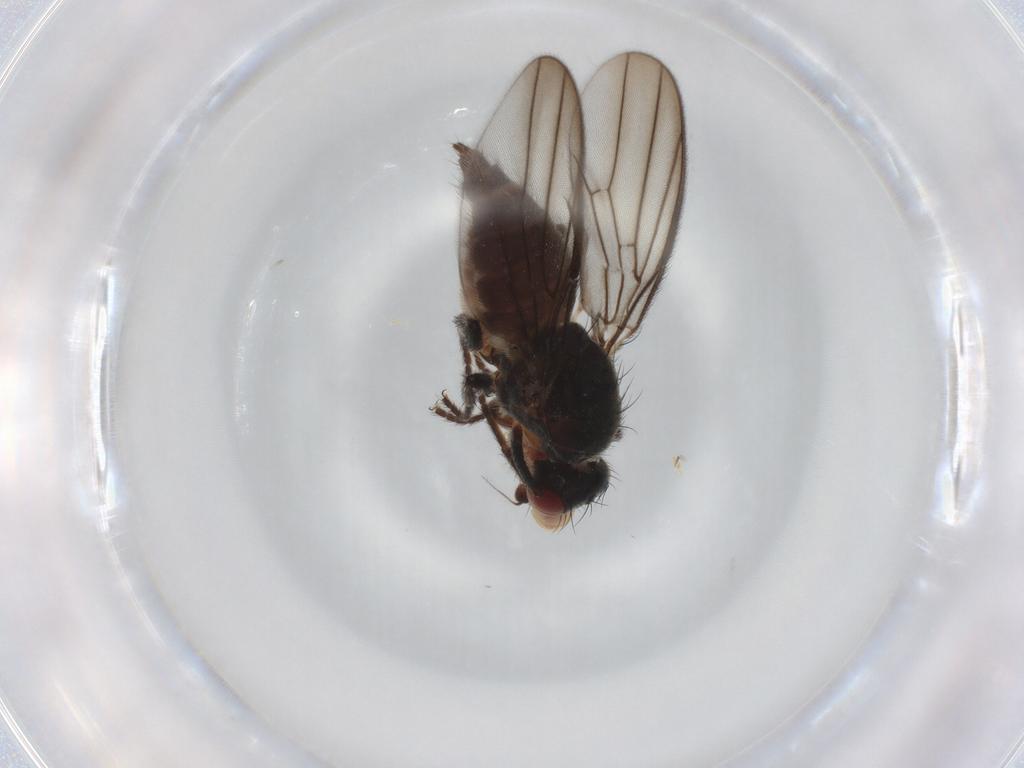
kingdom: Animalia
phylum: Arthropoda
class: Insecta
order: Diptera
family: Chloropidae
